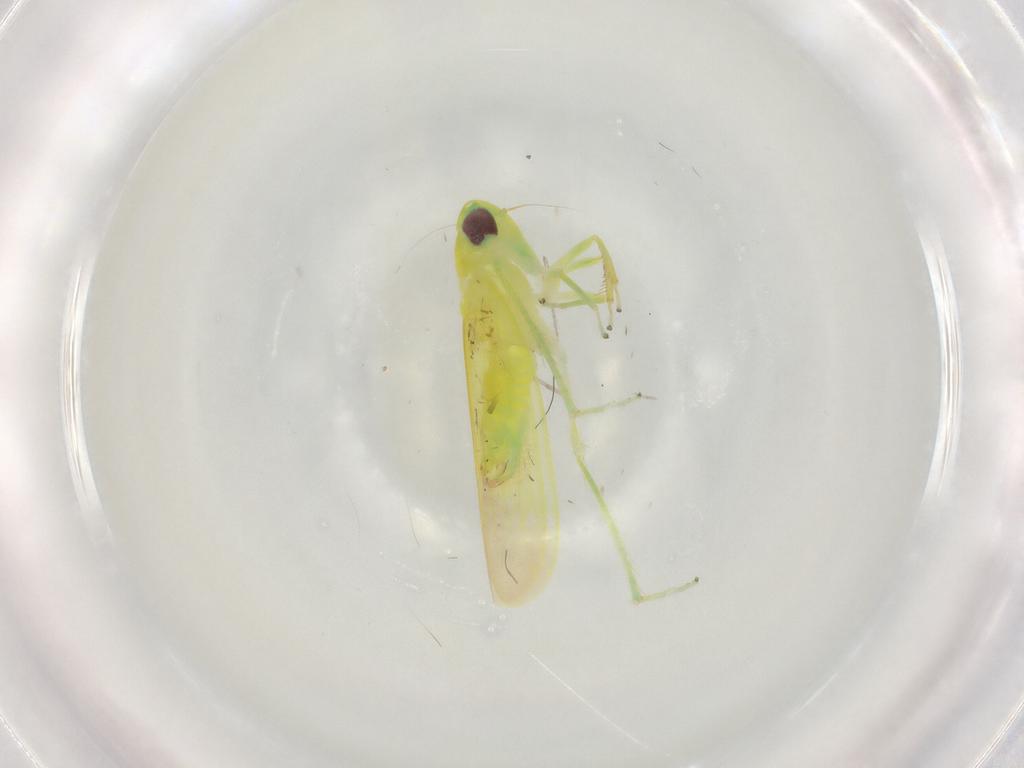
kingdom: Animalia
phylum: Arthropoda
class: Insecta
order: Hemiptera
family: Cicadellidae
